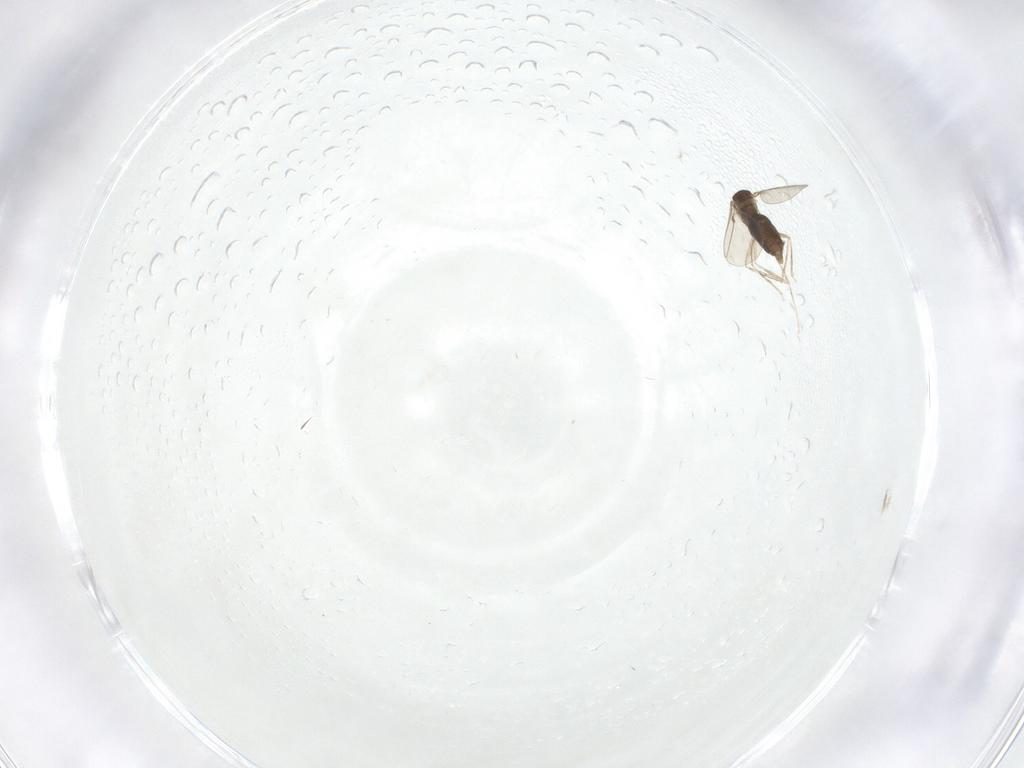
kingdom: Animalia
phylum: Arthropoda
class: Insecta
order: Diptera
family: Cecidomyiidae
